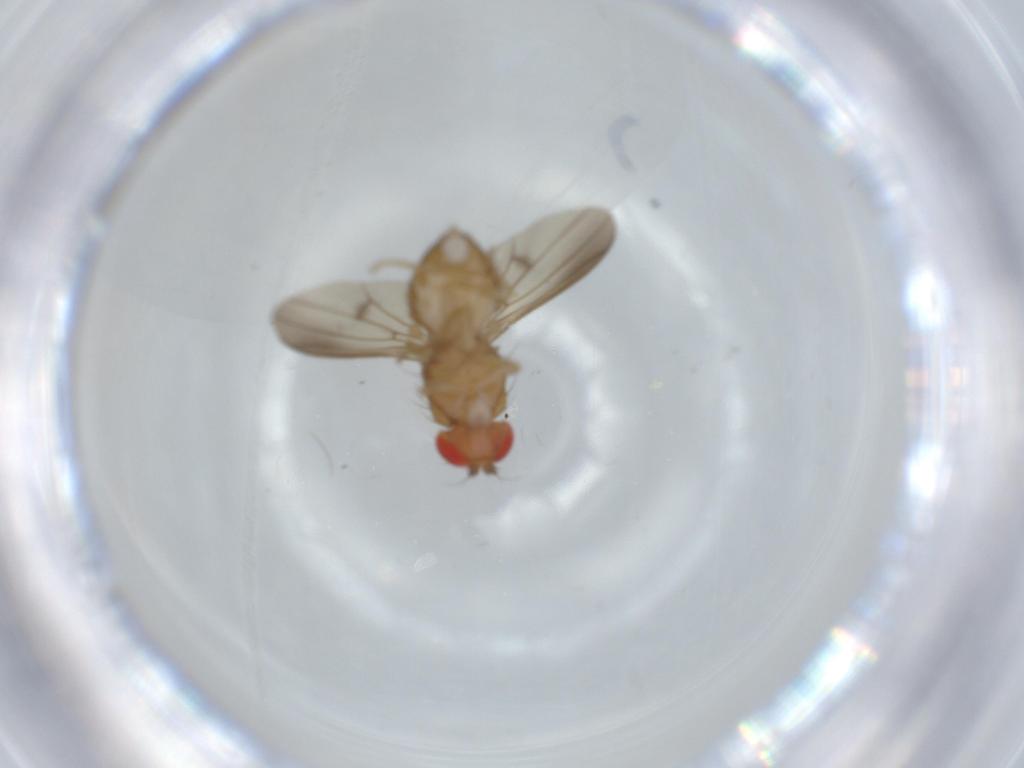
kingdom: Animalia
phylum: Arthropoda
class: Insecta
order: Diptera
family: Drosophilidae
